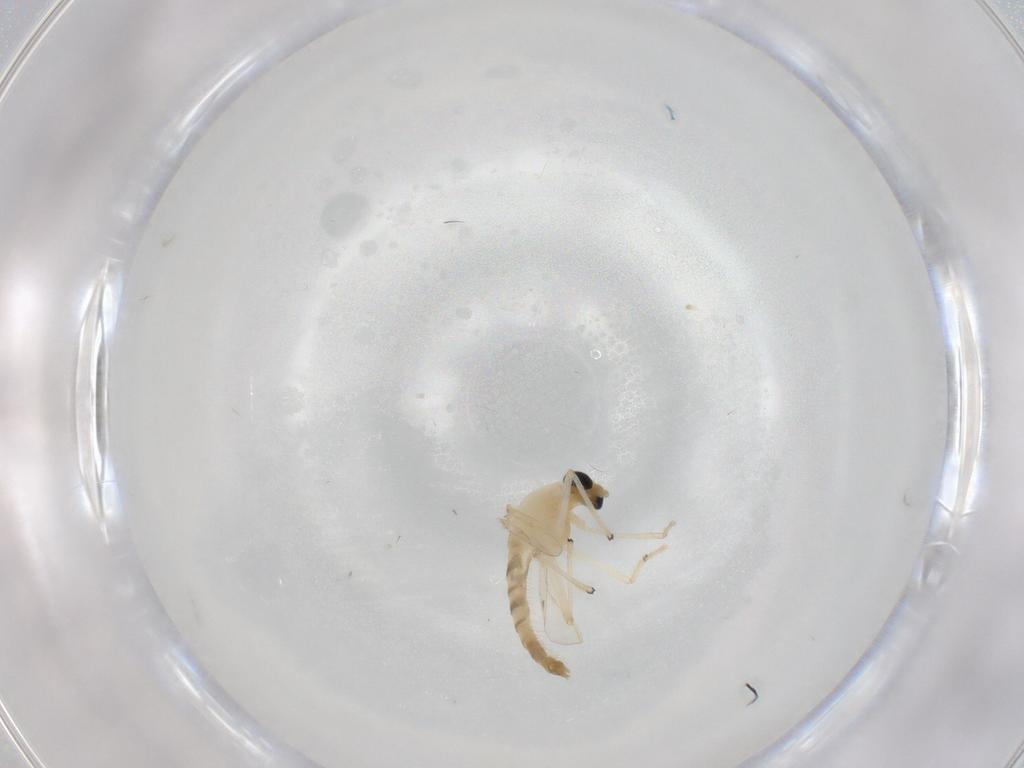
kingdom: Animalia
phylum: Arthropoda
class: Insecta
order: Diptera
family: Chironomidae
